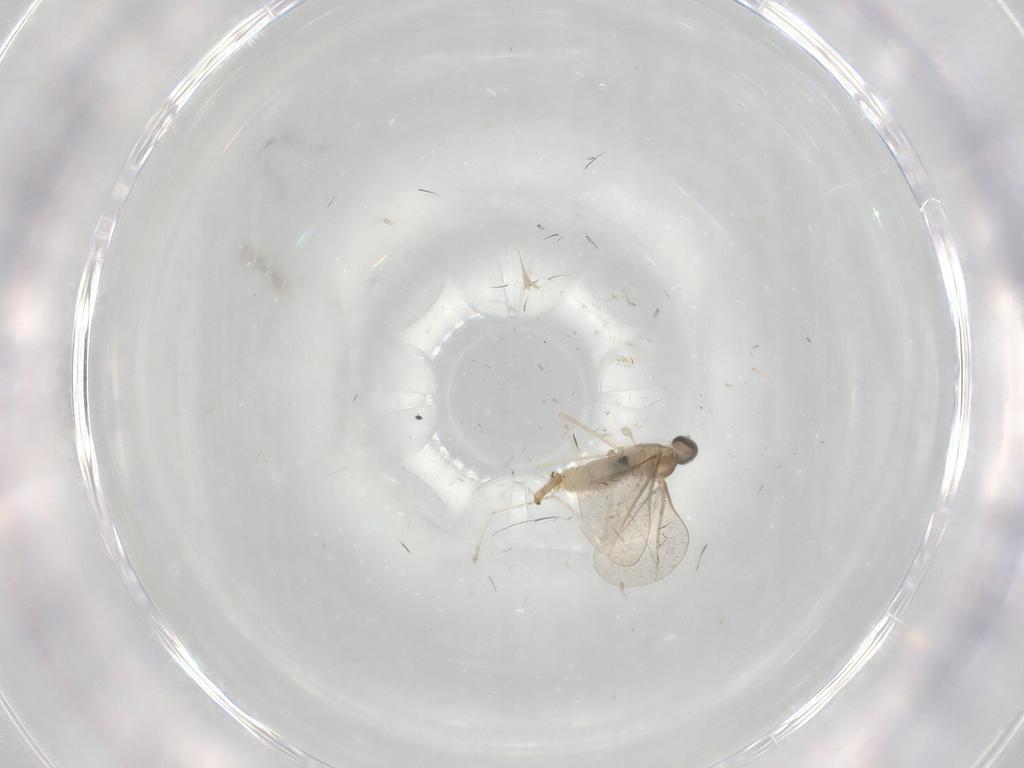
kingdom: Animalia
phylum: Arthropoda
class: Insecta
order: Diptera
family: Cecidomyiidae
